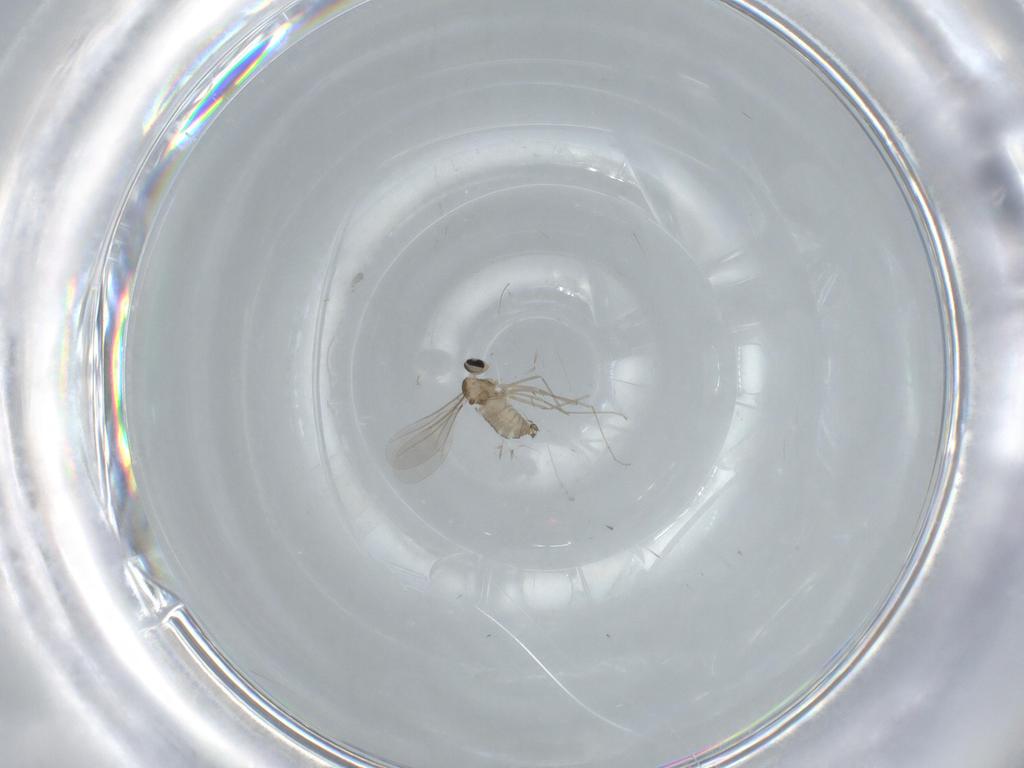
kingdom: Animalia
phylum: Arthropoda
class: Insecta
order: Diptera
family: Cecidomyiidae
